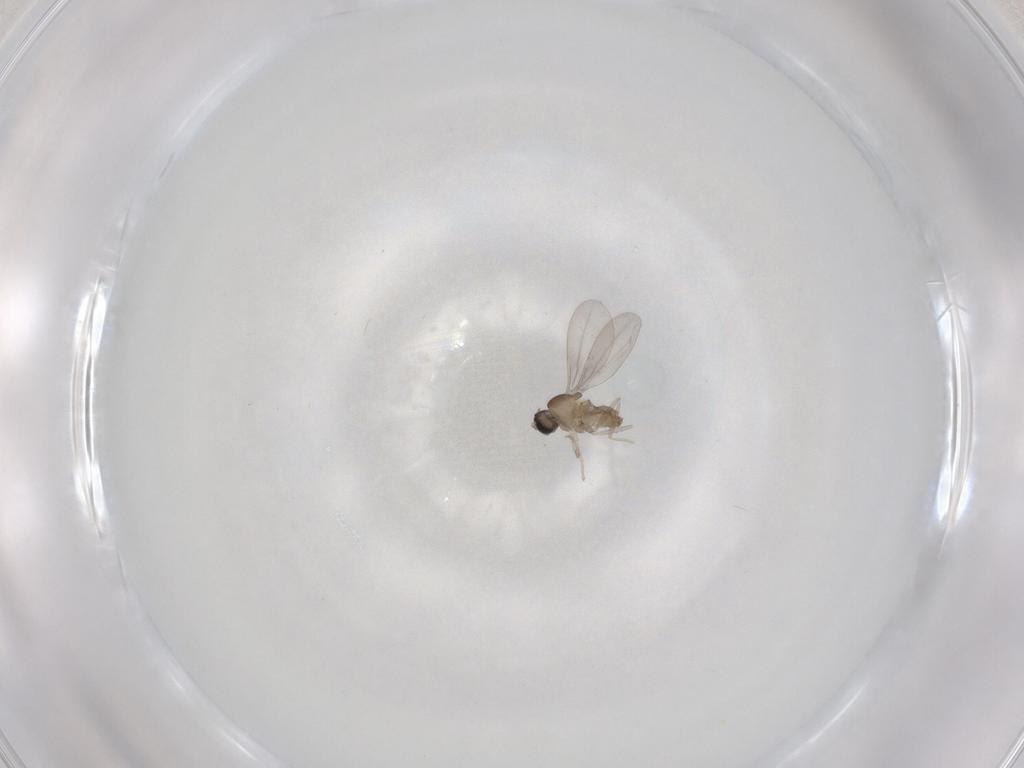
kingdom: Animalia
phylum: Arthropoda
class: Insecta
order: Diptera
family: Cecidomyiidae
